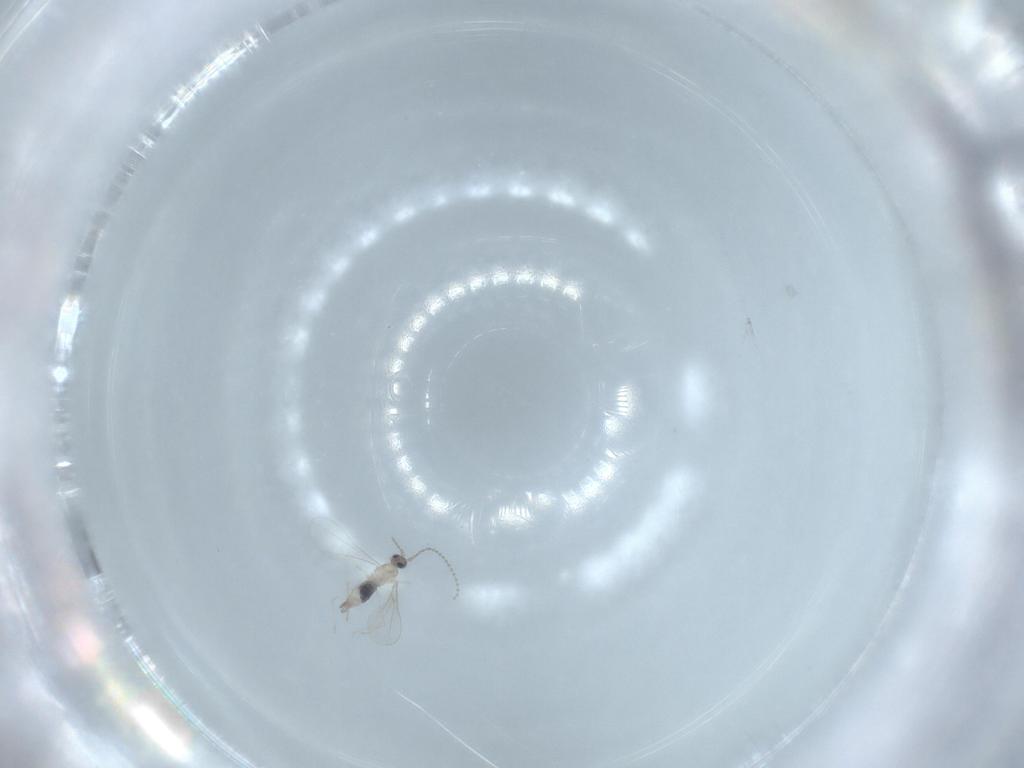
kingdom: Animalia
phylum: Arthropoda
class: Insecta
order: Diptera
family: Cecidomyiidae
